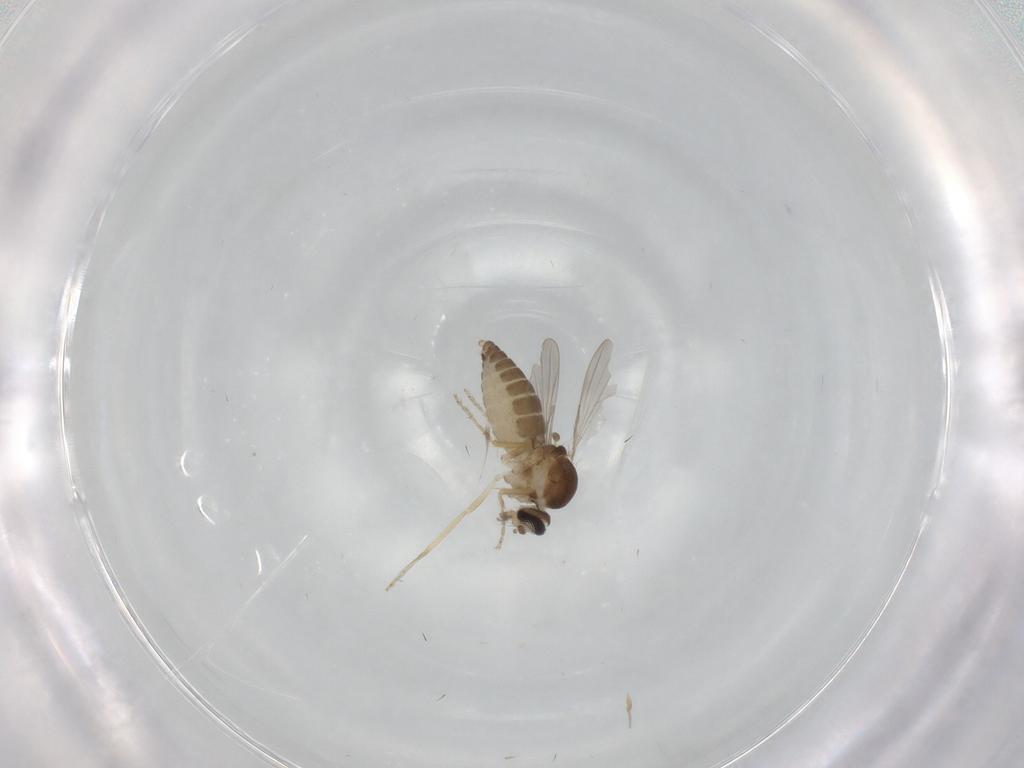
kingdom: Animalia
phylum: Arthropoda
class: Insecta
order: Diptera
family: Ceratopogonidae
